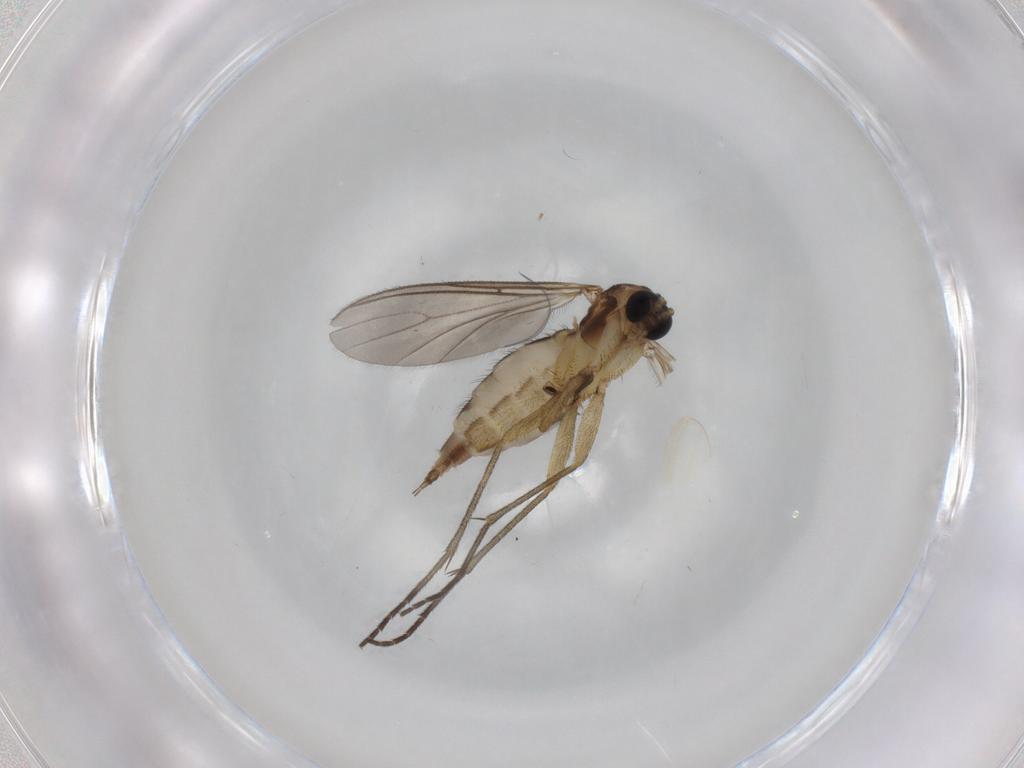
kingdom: Animalia
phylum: Arthropoda
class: Insecta
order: Diptera
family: Sciaridae
